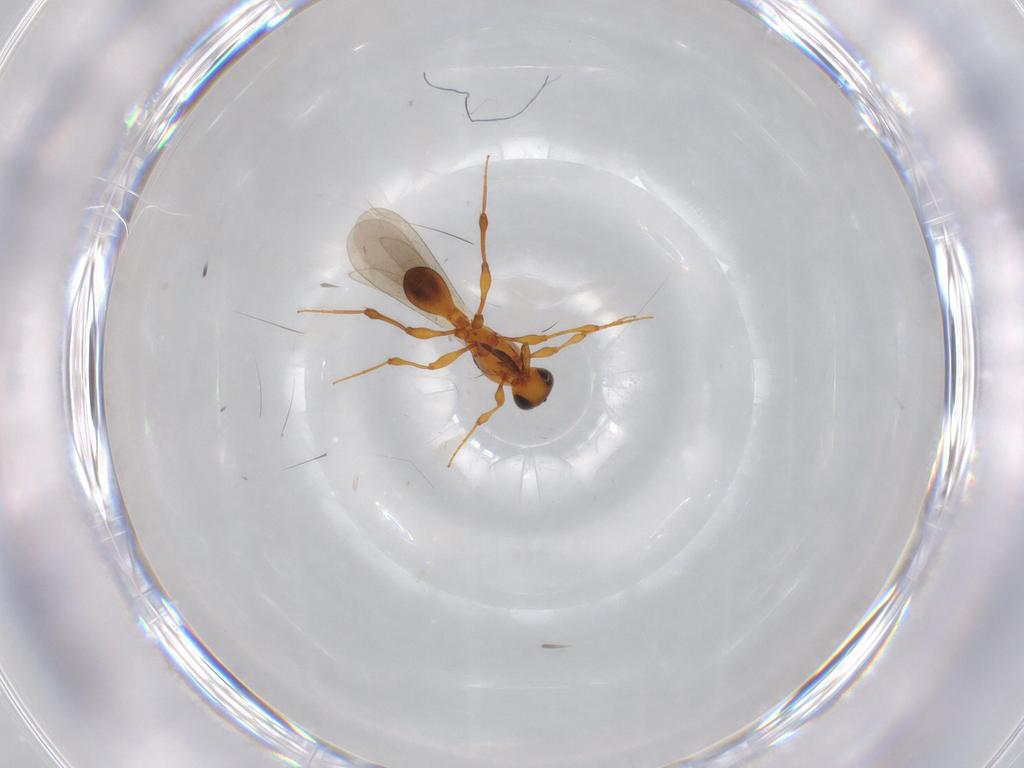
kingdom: Animalia
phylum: Arthropoda
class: Insecta
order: Hymenoptera
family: Platygastridae
